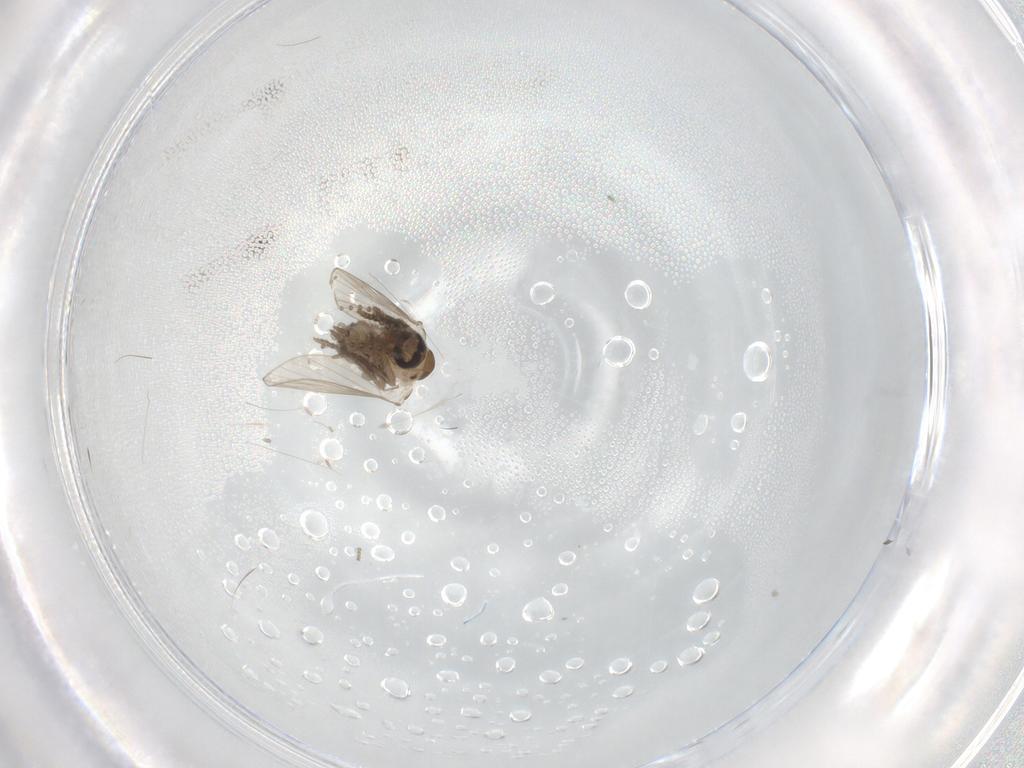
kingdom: Animalia
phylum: Arthropoda
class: Insecta
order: Diptera
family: Psychodidae
